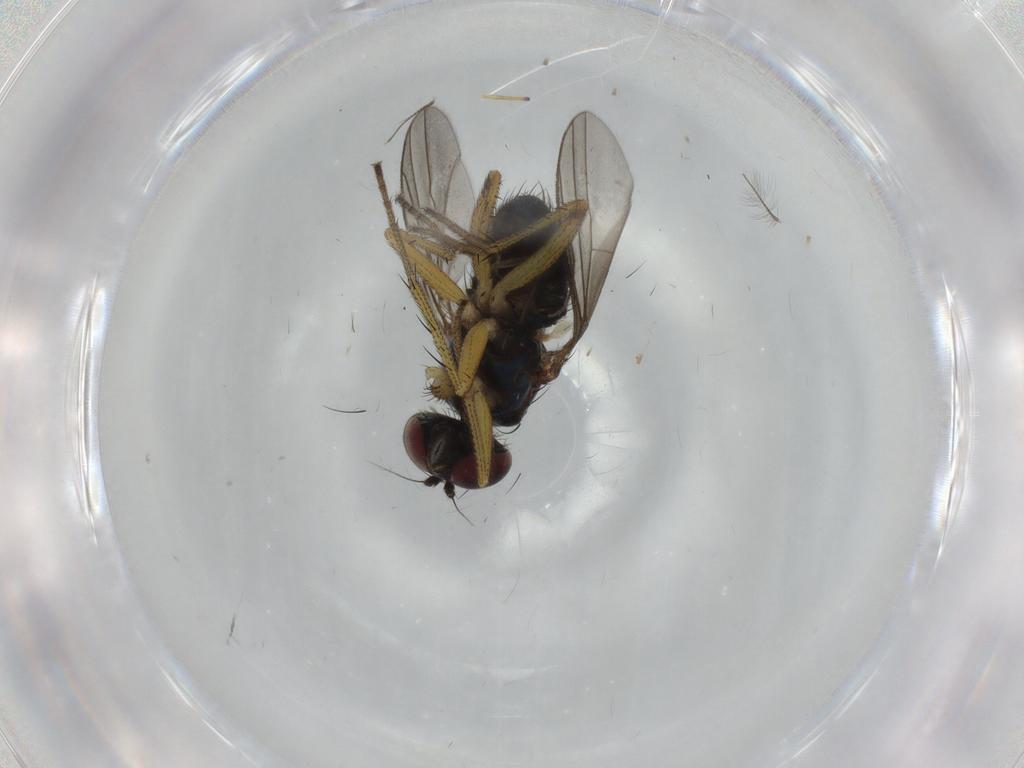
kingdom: Animalia
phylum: Arthropoda
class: Insecta
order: Diptera
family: Dolichopodidae
